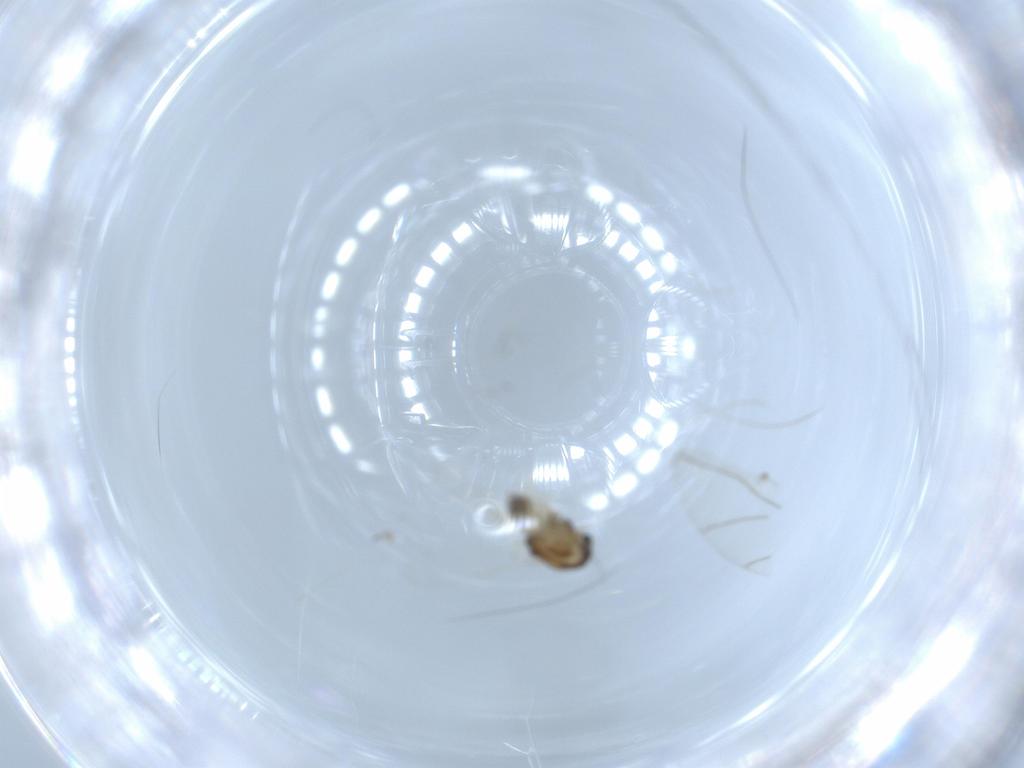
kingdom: Animalia
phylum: Arthropoda
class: Insecta
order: Diptera
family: Chironomidae
